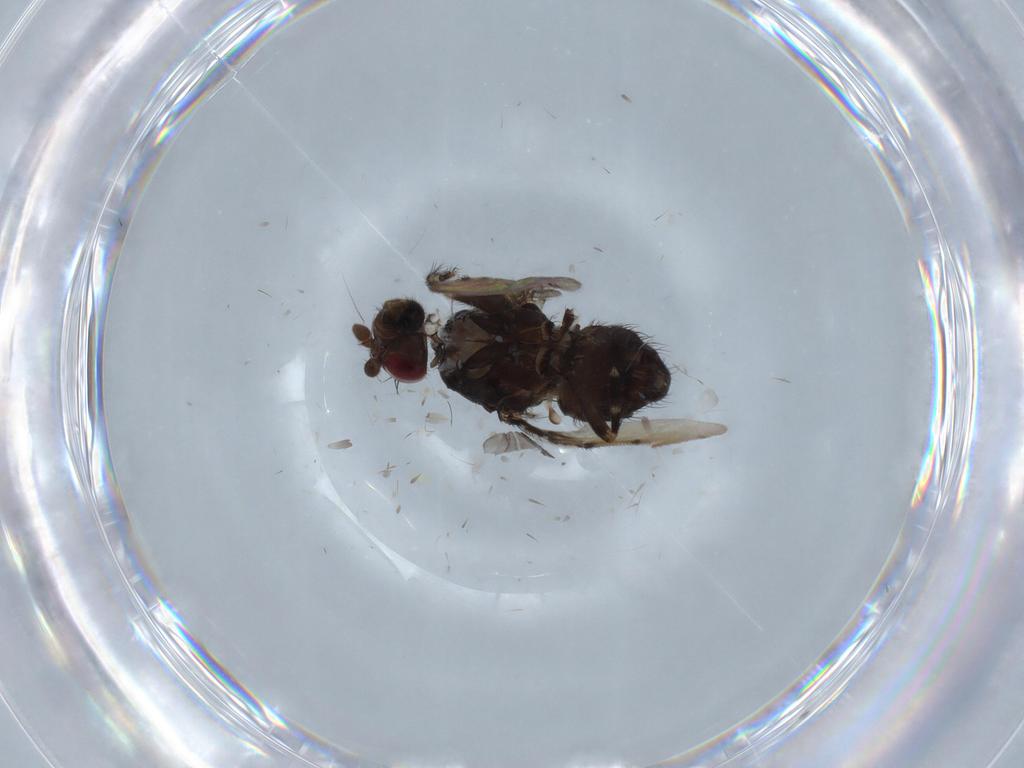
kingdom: Animalia
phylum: Arthropoda
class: Insecta
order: Diptera
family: Sphaeroceridae
